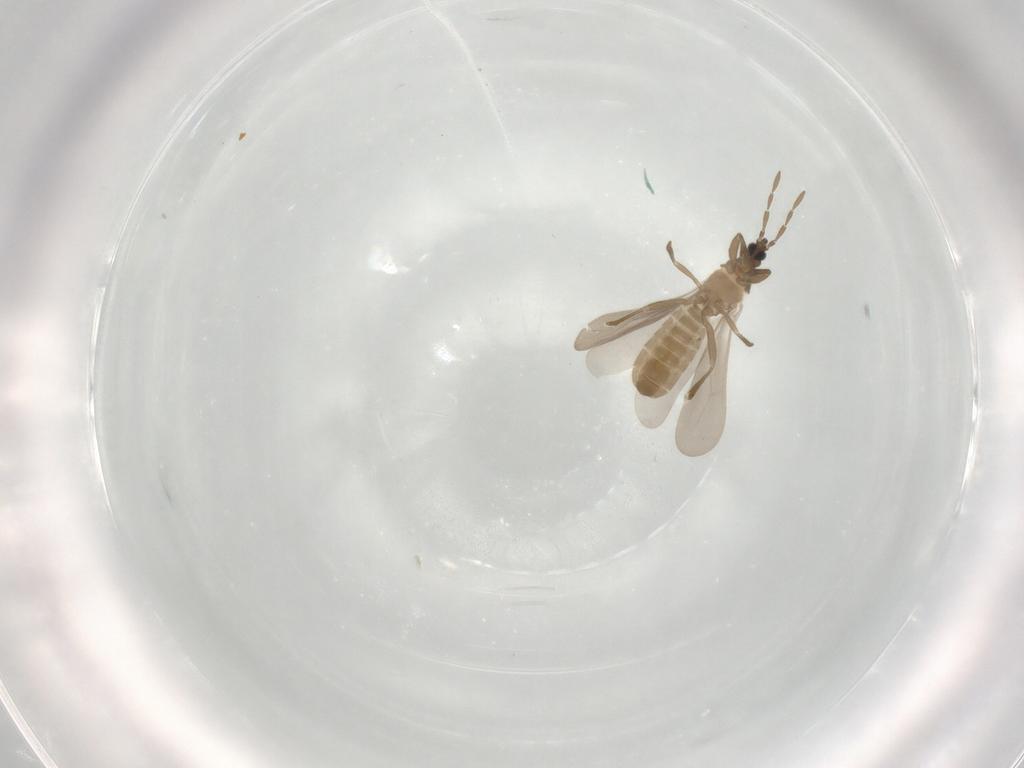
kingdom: Animalia
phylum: Arthropoda
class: Insecta
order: Hemiptera
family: Enicocephalidae
